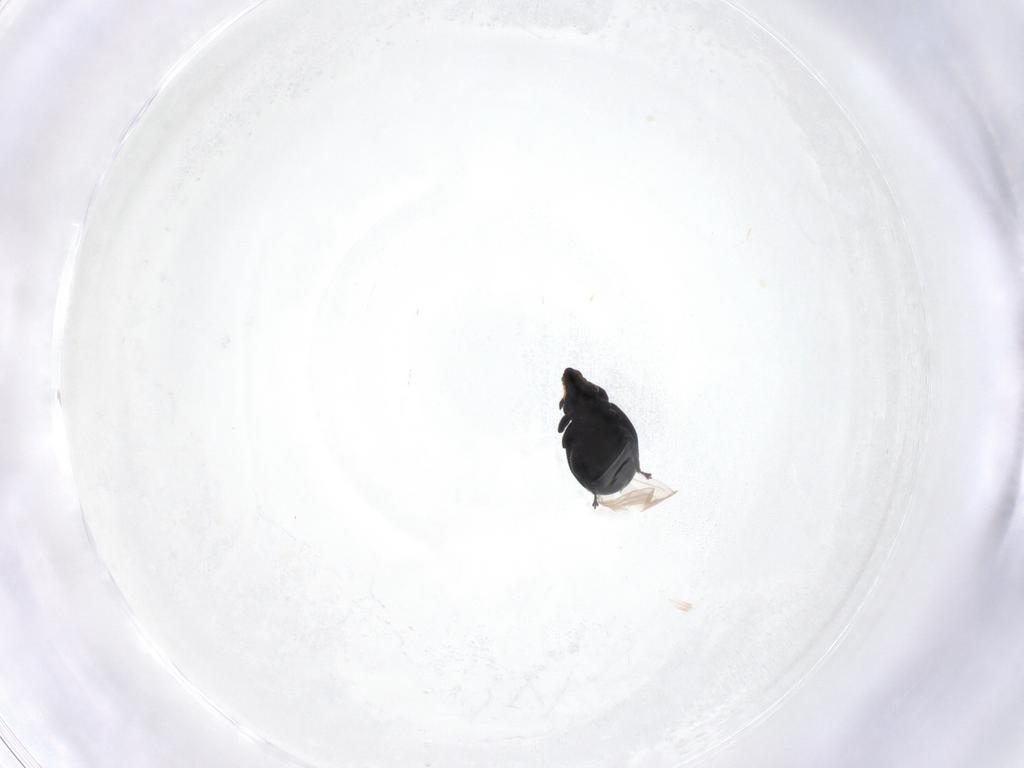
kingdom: Animalia
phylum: Arthropoda
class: Insecta
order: Coleoptera
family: Curculionidae
